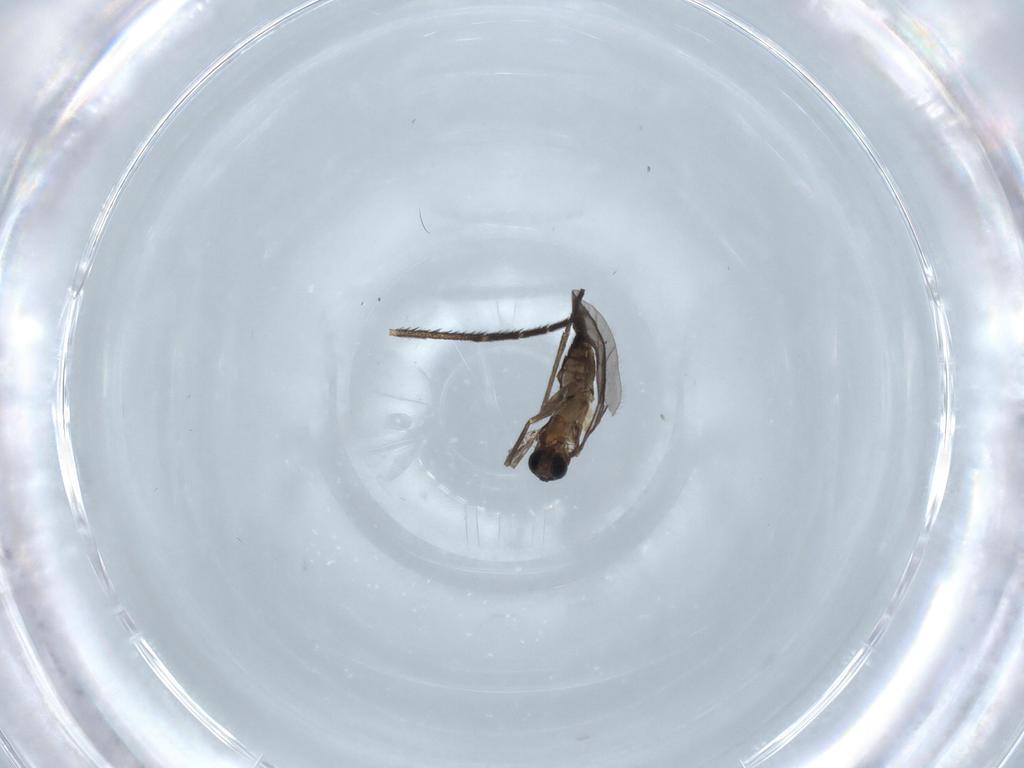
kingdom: Animalia
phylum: Arthropoda
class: Insecta
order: Diptera
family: Sciaridae
